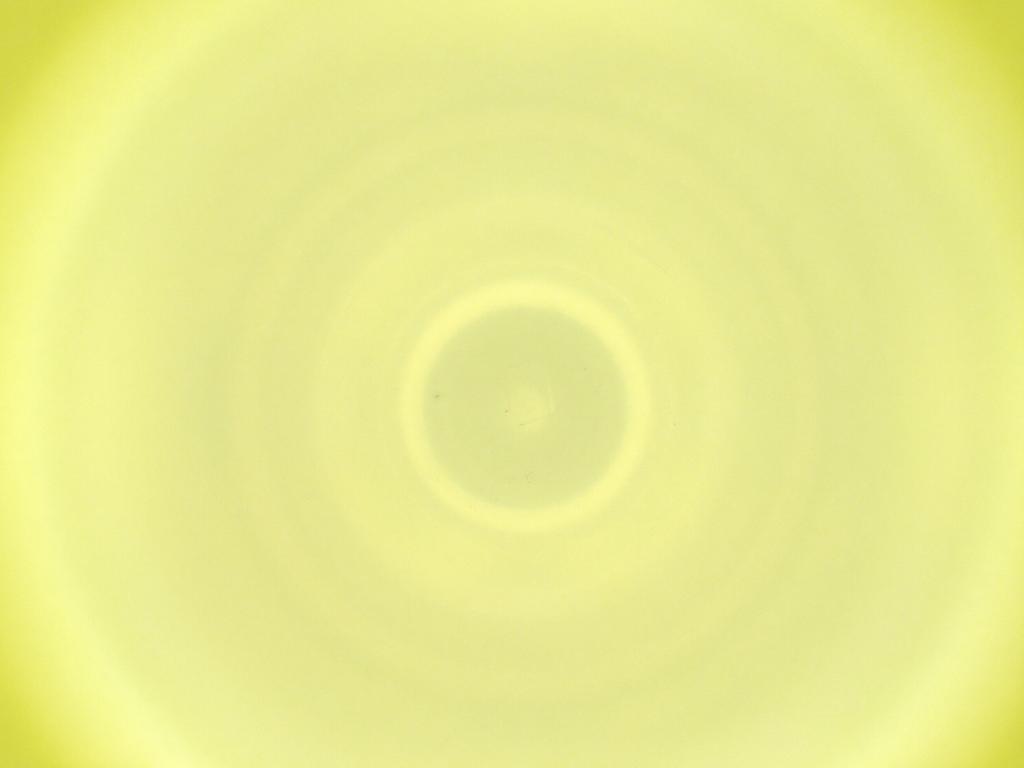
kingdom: Animalia
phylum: Arthropoda
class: Insecta
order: Diptera
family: Cecidomyiidae
